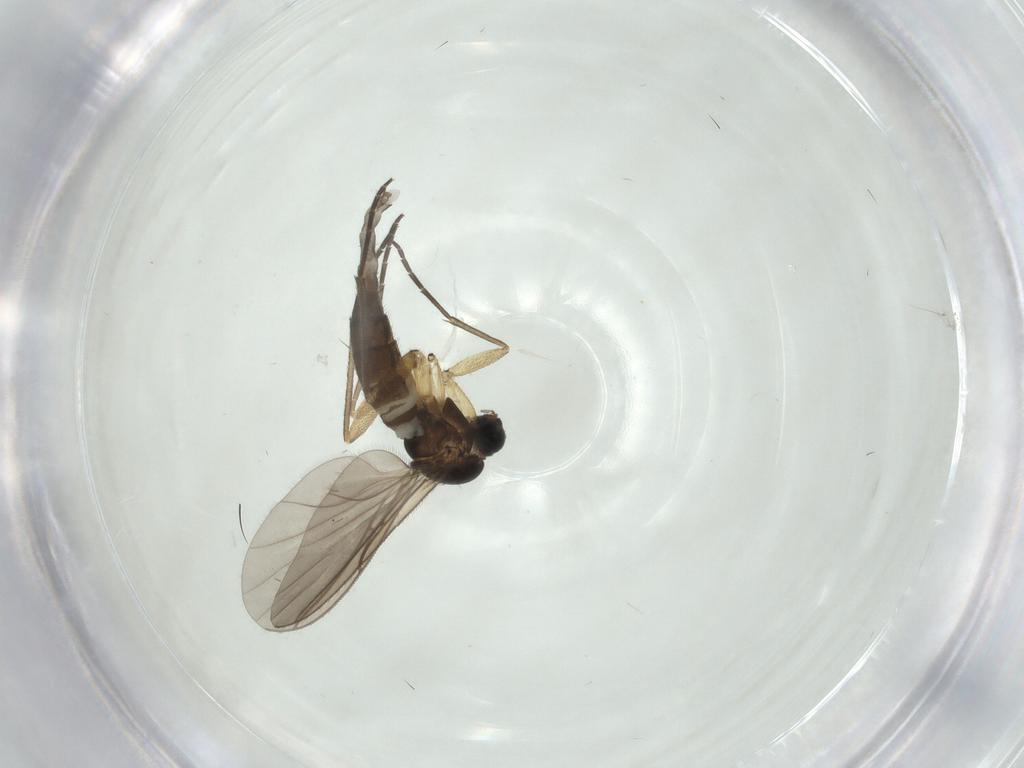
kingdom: Animalia
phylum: Arthropoda
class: Insecta
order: Diptera
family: Sciaridae
